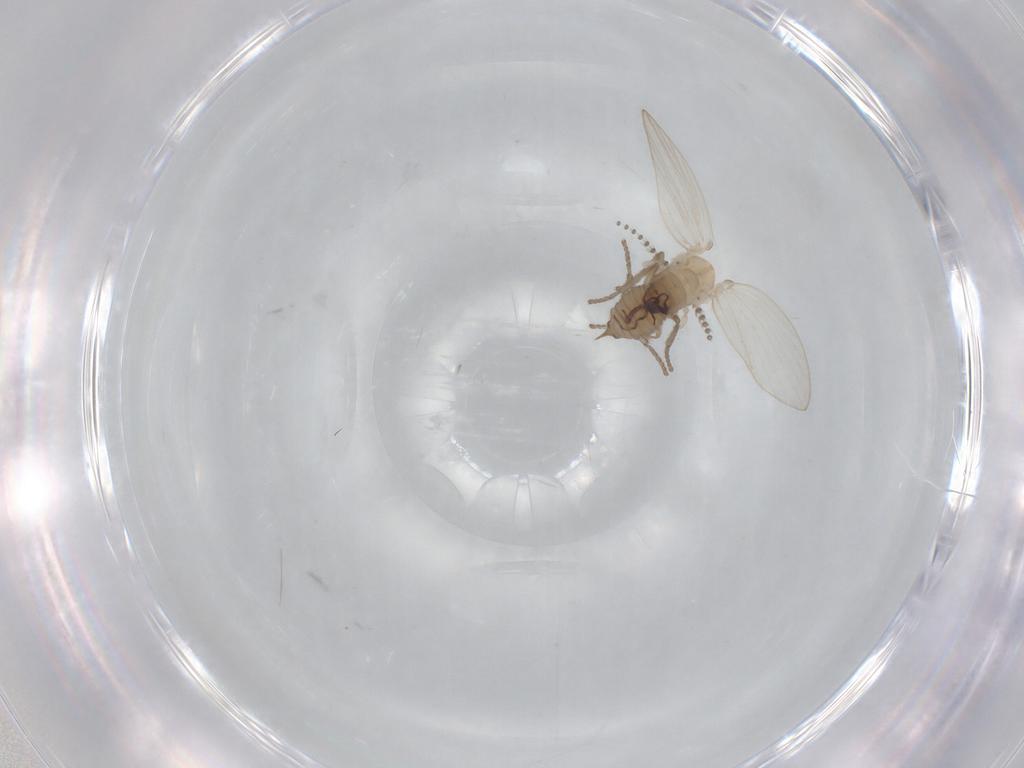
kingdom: Animalia
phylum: Arthropoda
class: Insecta
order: Diptera
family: Psychodidae
